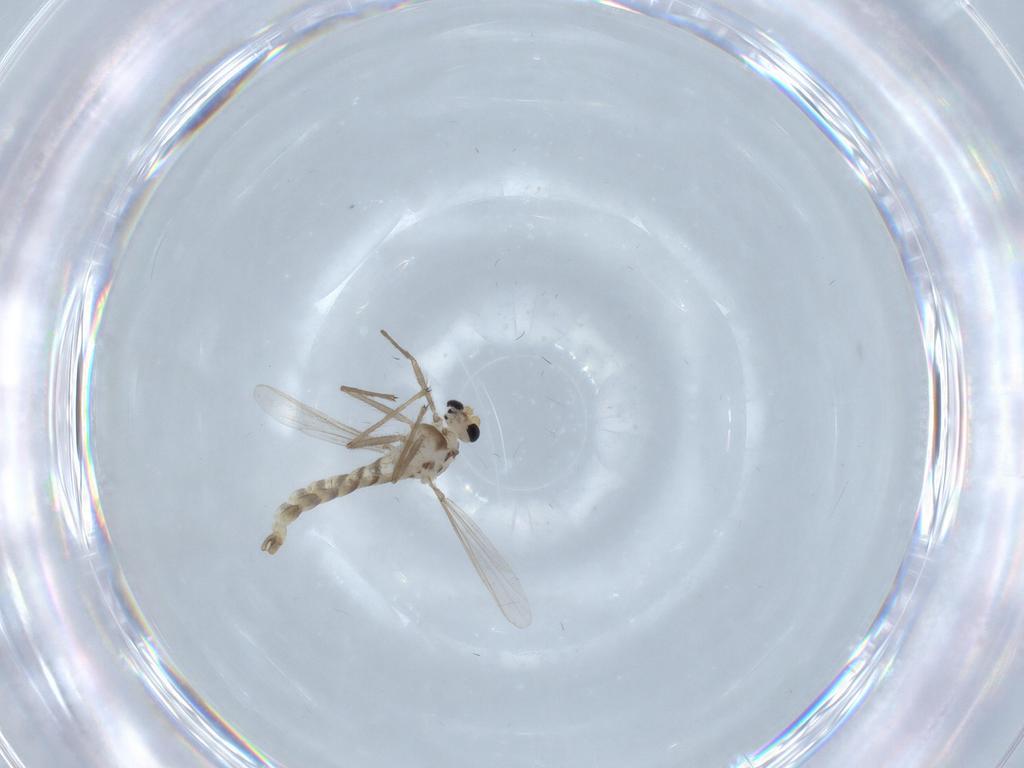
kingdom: Animalia
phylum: Arthropoda
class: Insecta
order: Diptera
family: Chironomidae
